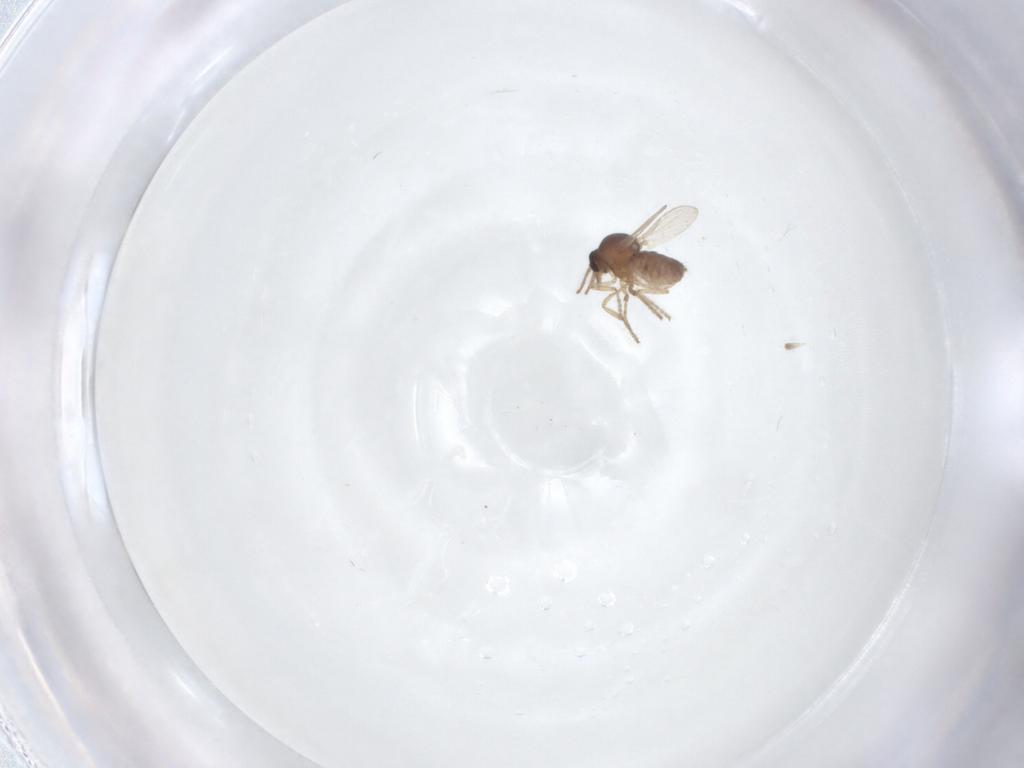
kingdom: Animalia
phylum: Arthropoda
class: Insecta
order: Diptera
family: Ceratopogonidae
